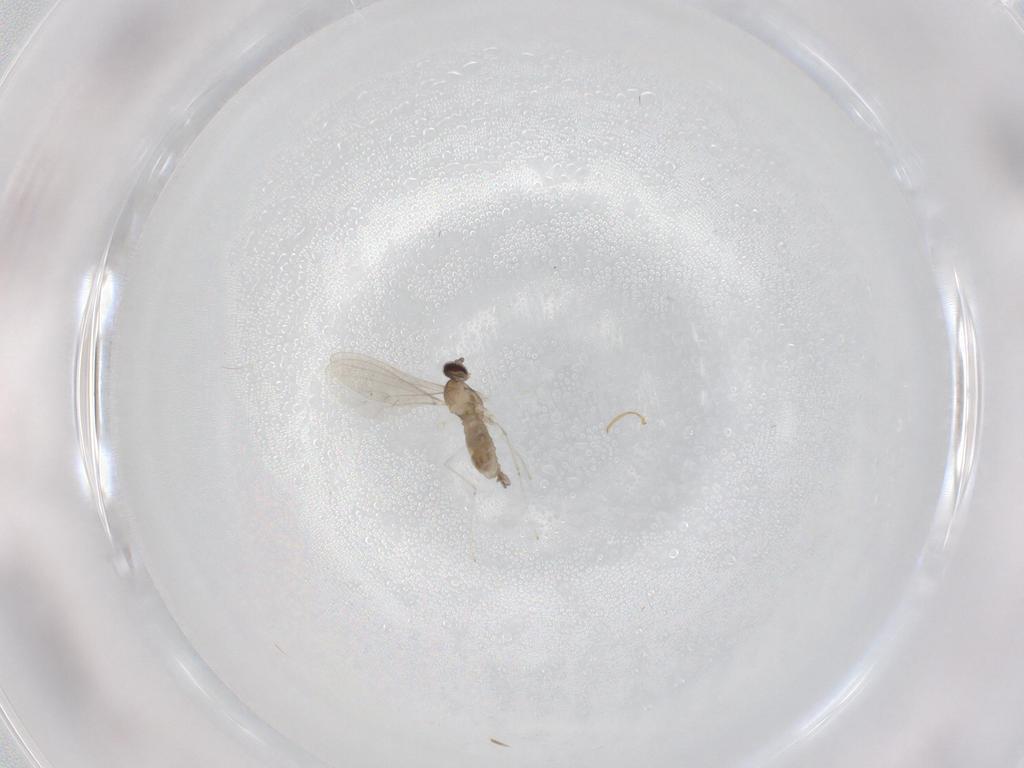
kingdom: Animalia
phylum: Arthropoda
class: Insecta
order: Diptera
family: Cecidomyiidae
